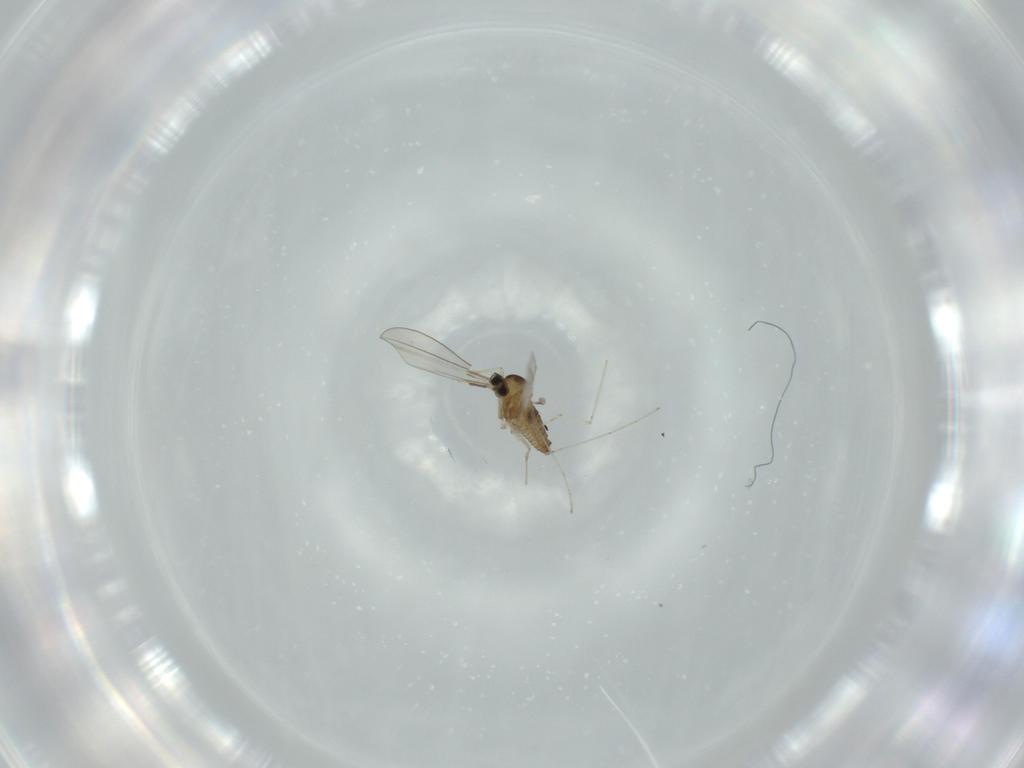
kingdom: Animalia
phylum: Arthropoda
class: Insecta
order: Diptera
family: Cecidomyiidae
